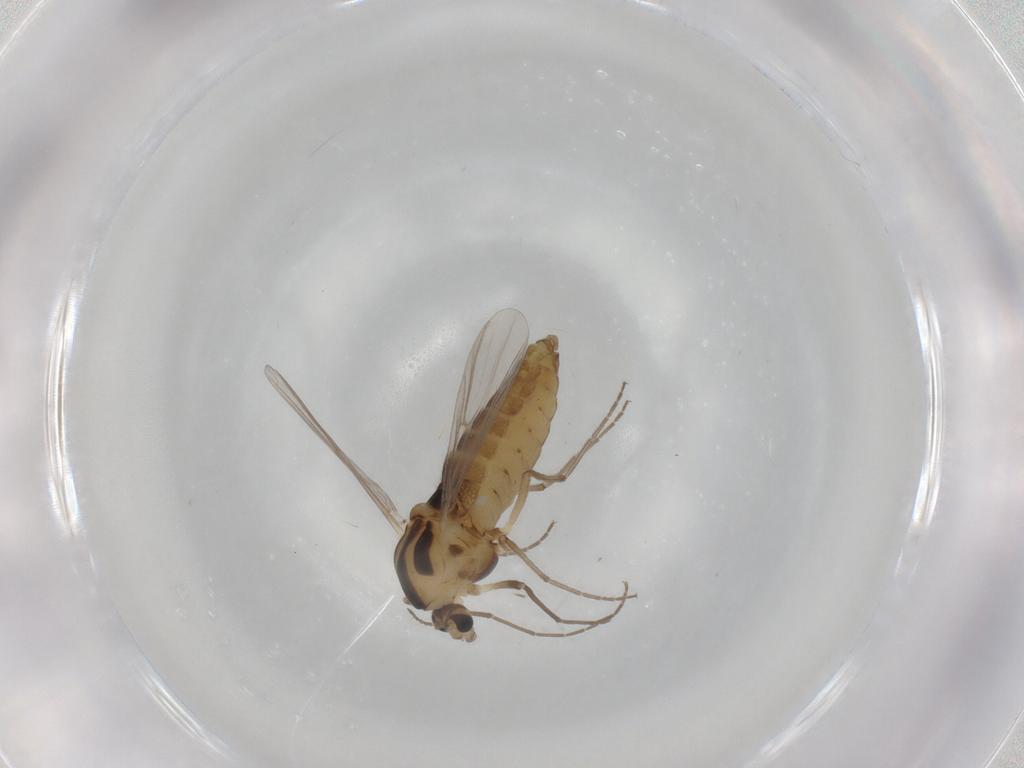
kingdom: Animalia
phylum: Arthropoda
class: Insecta
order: Diptera
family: Chironomidae
